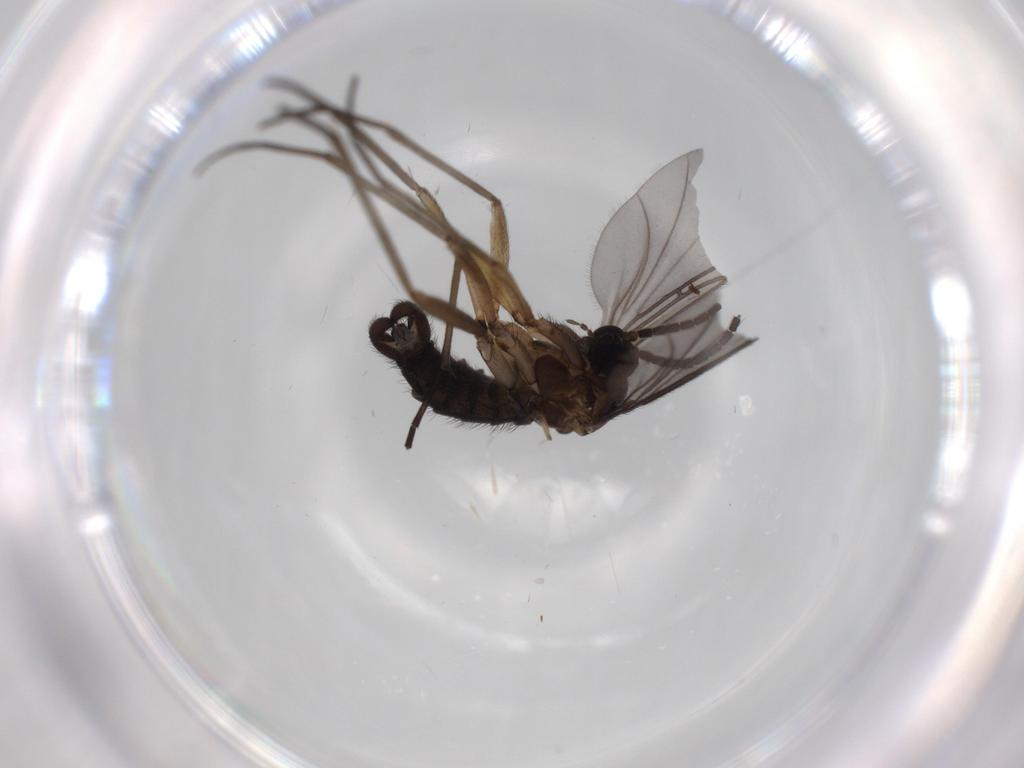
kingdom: Animalia
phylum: Arthropoda
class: Insecta
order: Diptera
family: Sciaridae
